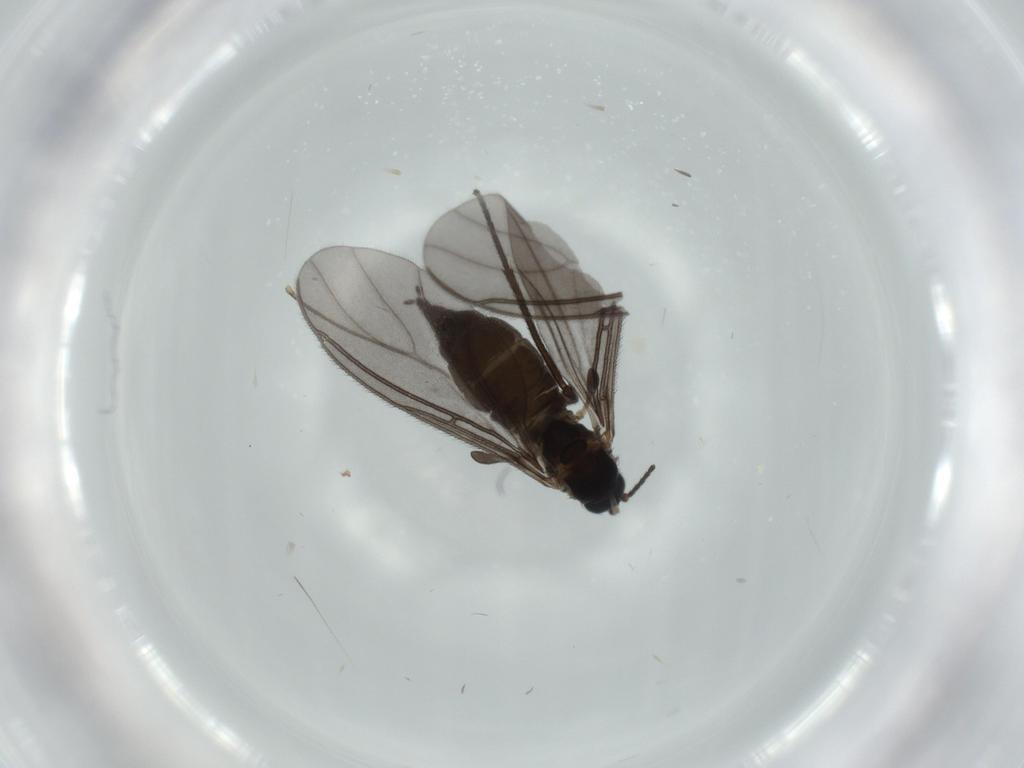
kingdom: Animalia
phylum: Arthropoda
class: Insecta
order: Diptera
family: Sciaridae
